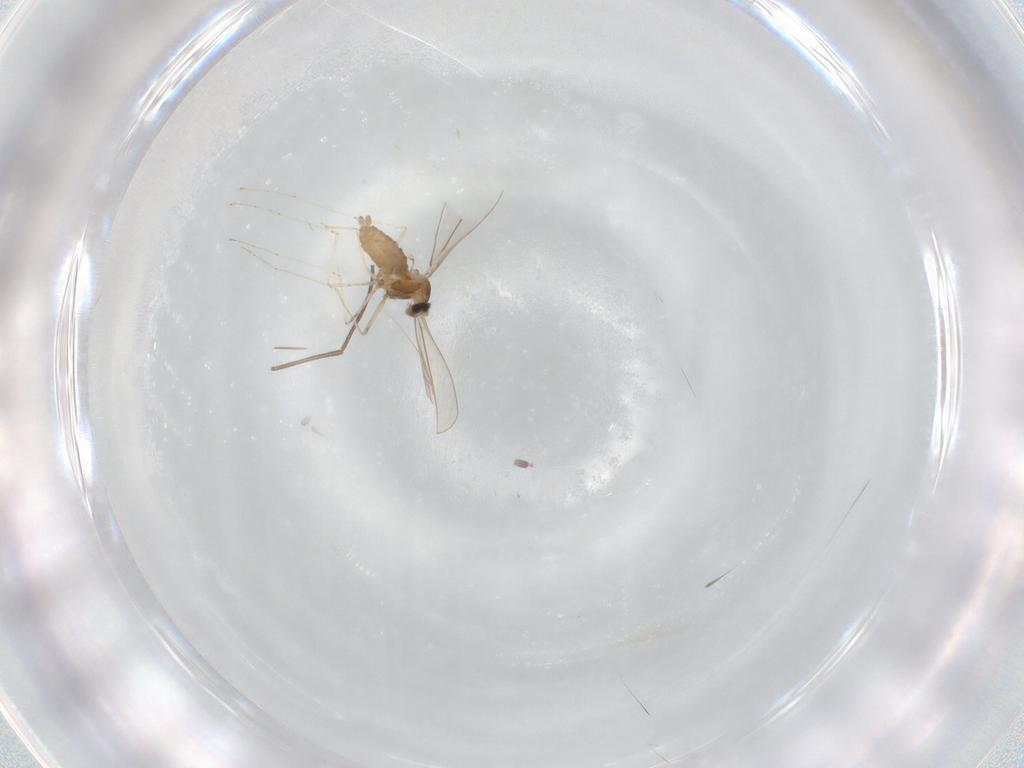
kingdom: Animalia
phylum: Arthropoda
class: Insecta
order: Diptera
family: Cecidomyiidae
